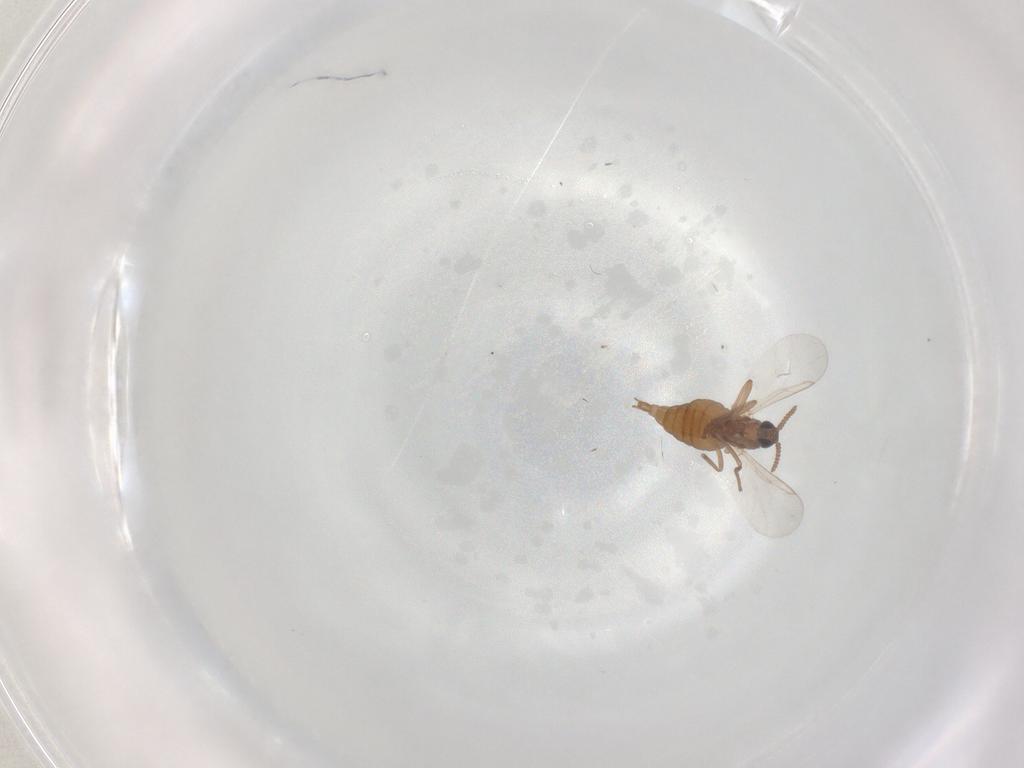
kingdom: Animalia
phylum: Arthropoda
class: Insecta
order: Diptera
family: Cecidomyiidae
